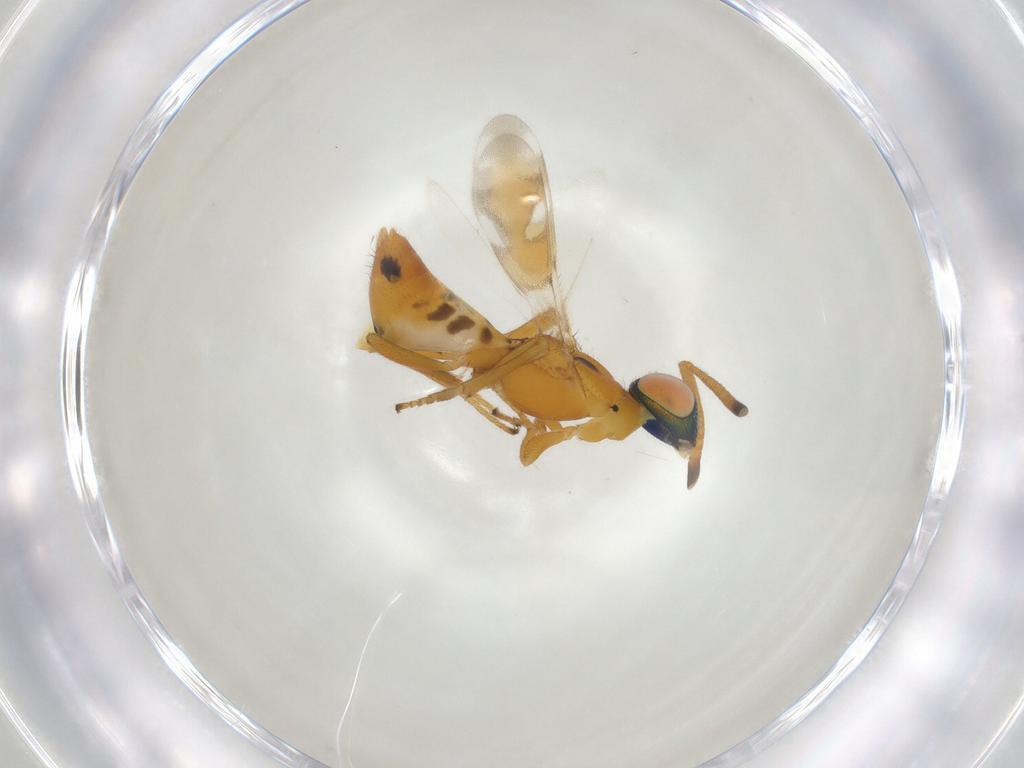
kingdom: Animalia
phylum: Arthropoda
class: Insecta
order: Hymenoptera
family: Eupelmidae
